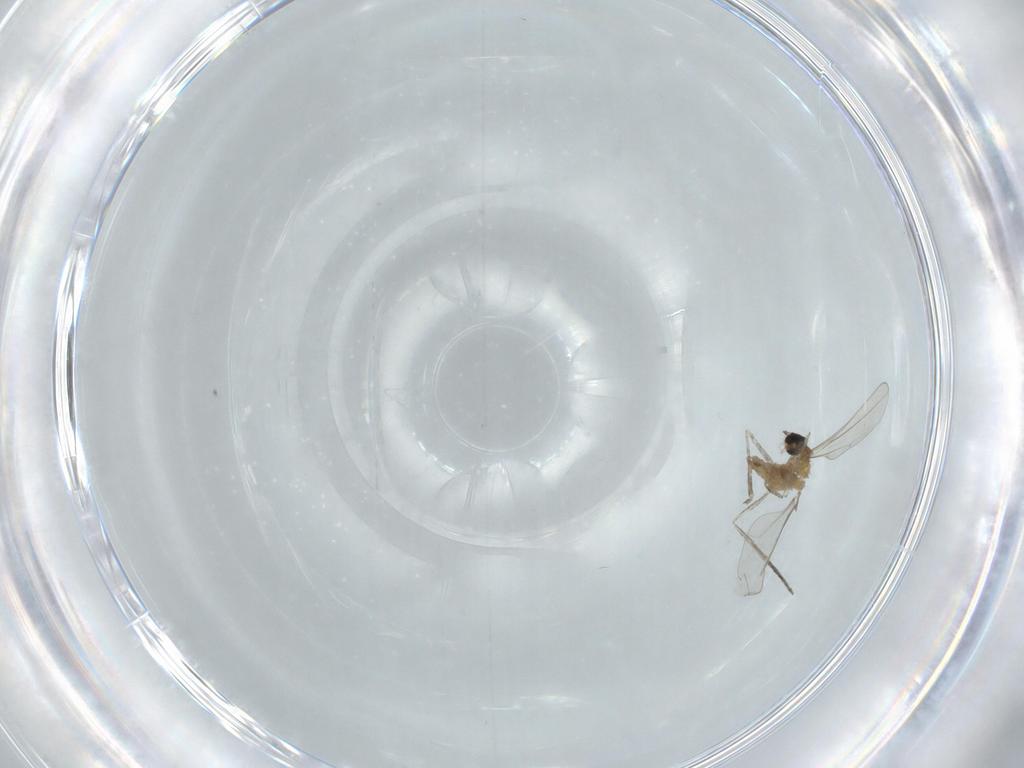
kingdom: Animalia
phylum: Arthropoda
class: Insecta
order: Diptera
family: Cecidomyiidae
